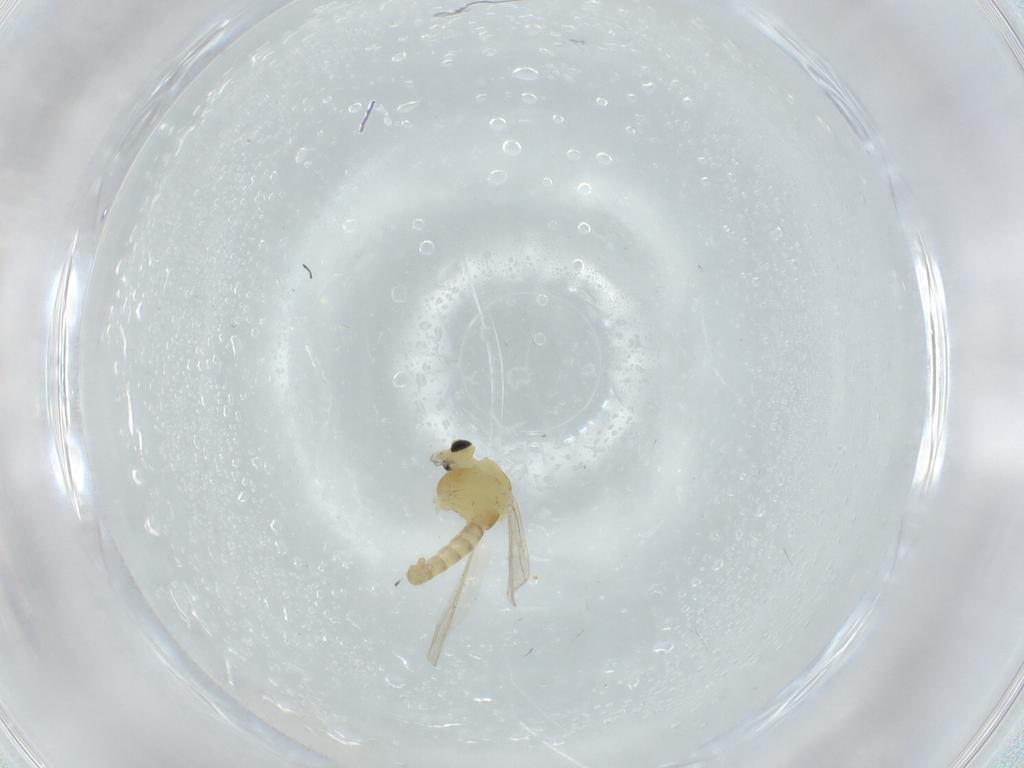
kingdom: Animalia
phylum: Arthropoda
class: Insecta
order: Diptera
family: Chironomidae
